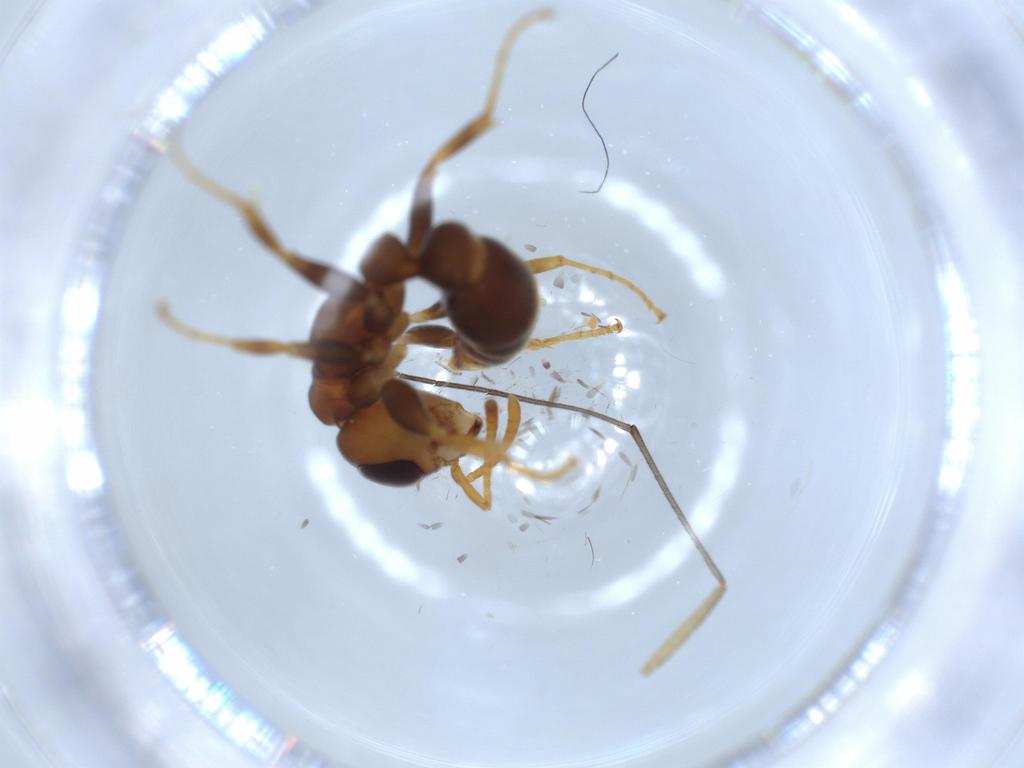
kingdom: Animalia
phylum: Arthropoda
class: Insecta
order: Hymenoptera
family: Formicidae
